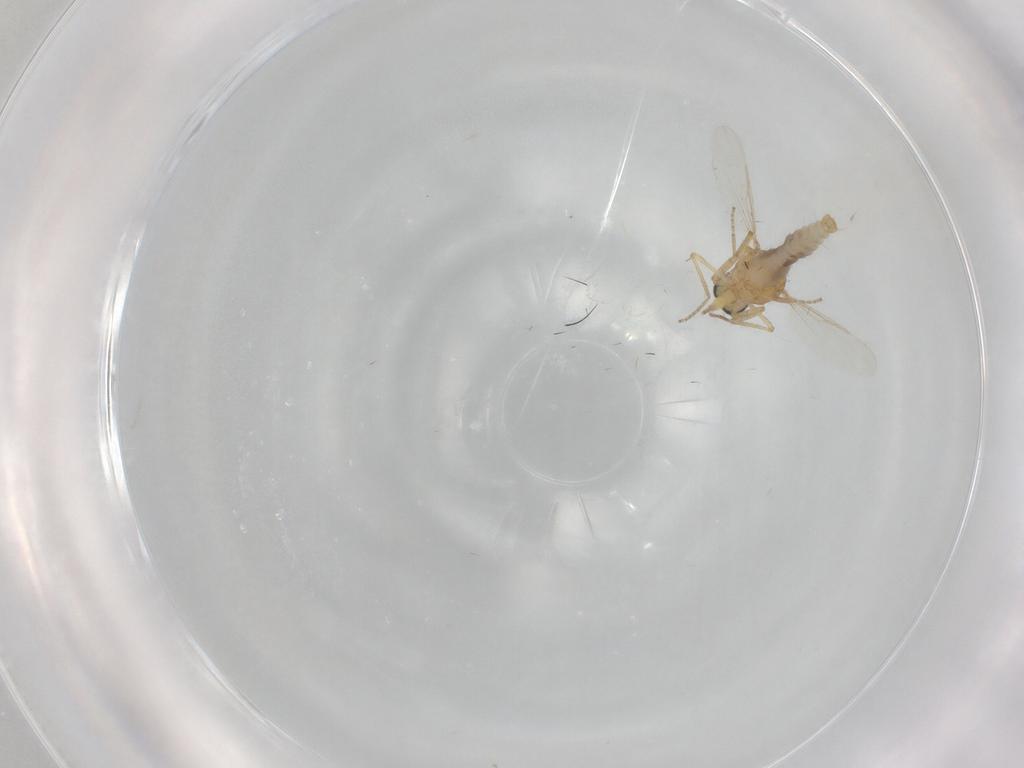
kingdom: Animalia
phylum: Arthropoda
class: Insecta
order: Diptera
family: Ceratopogonidae
